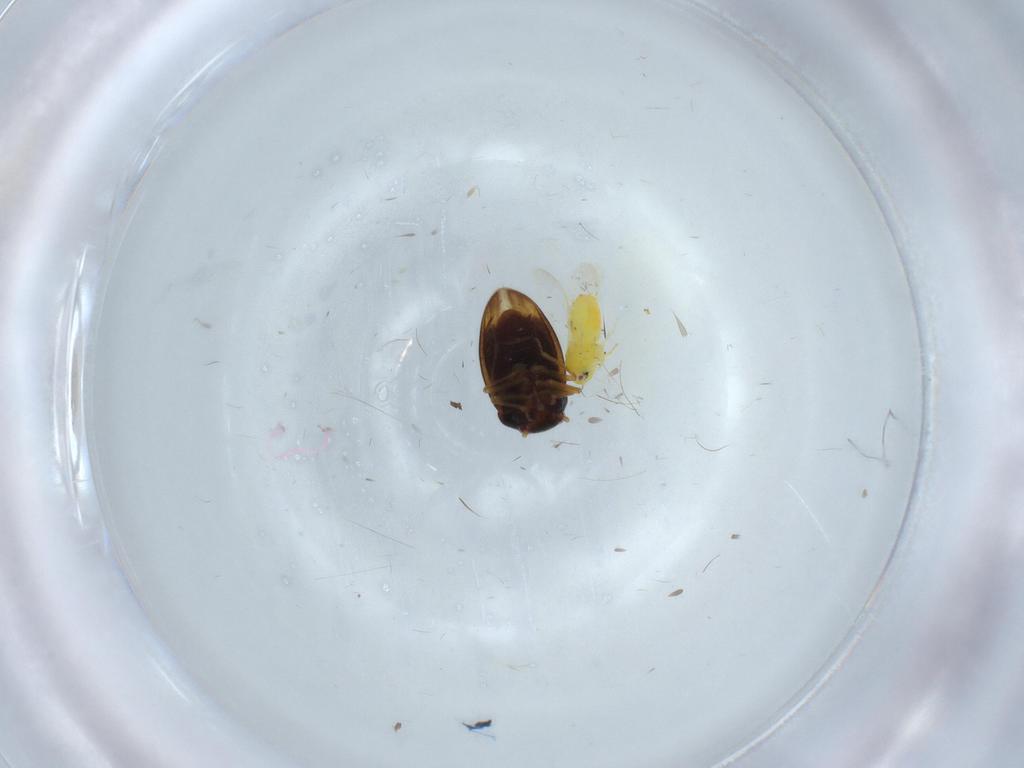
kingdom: Animalia
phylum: Arthropoda
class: Insecta
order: Hemiptera
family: Aleyrodidae
